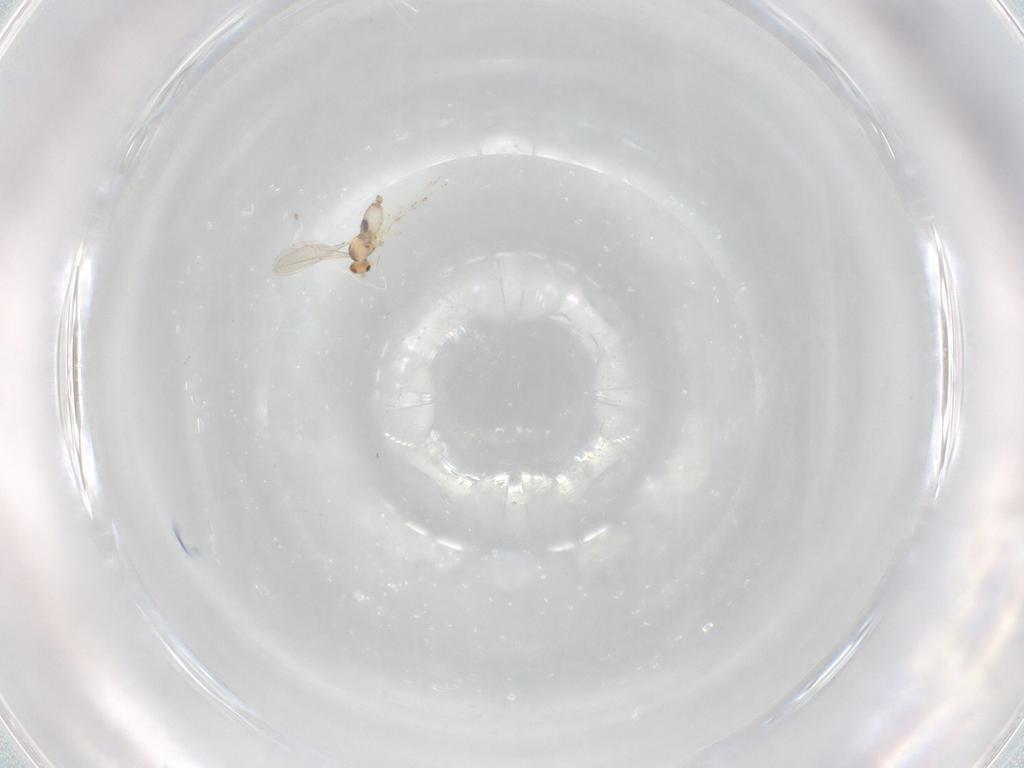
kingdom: Animalia
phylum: Arthropoda
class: Insecta
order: Diptera
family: Cecidomyiidae
